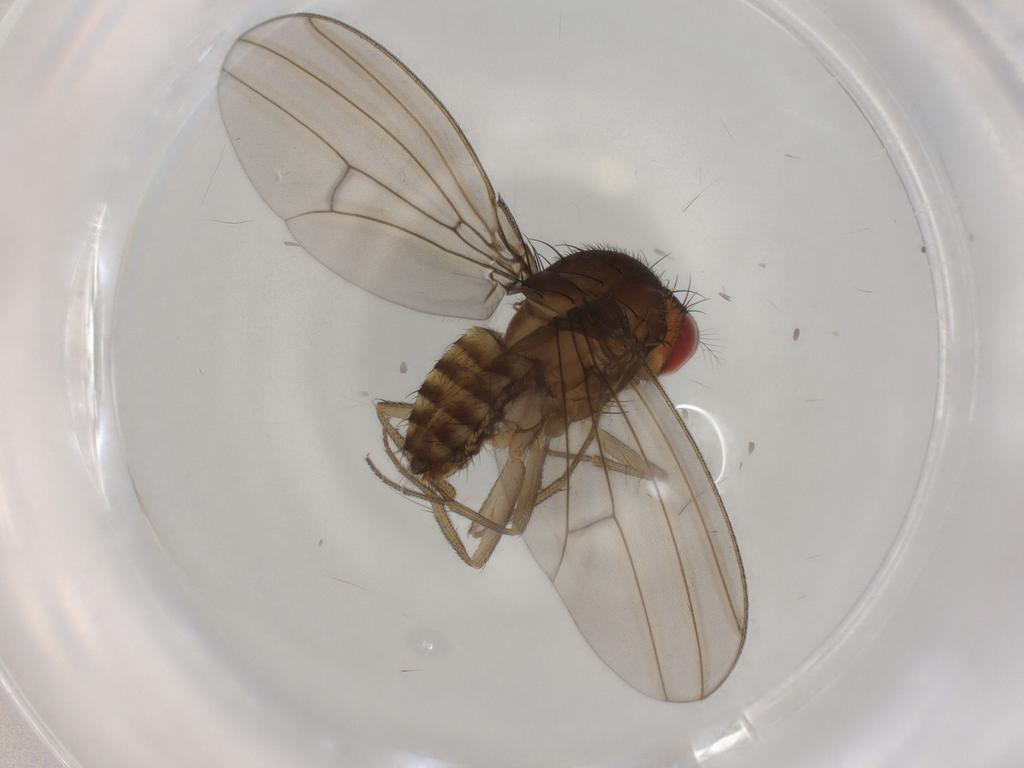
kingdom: Animalia
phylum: Arthropoda
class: Insecta
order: Diptera
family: Drosophilidae
